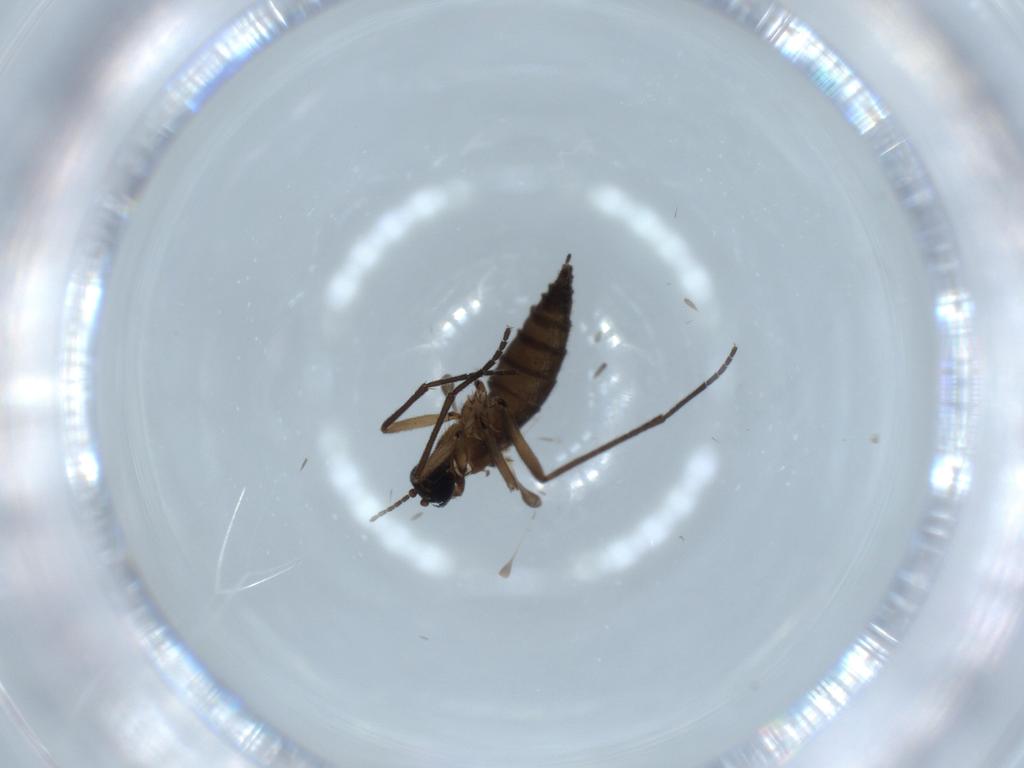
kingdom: Animalia
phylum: Arthropoda
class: Insecta
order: Diptera
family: Sciaridae
